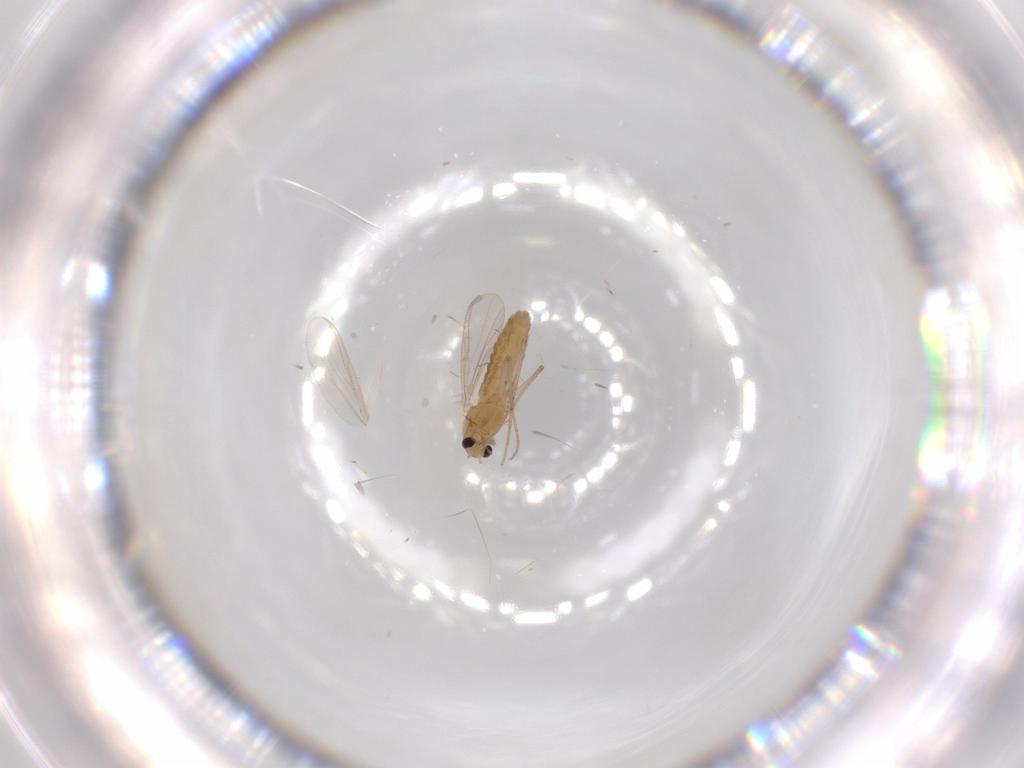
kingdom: Animalia
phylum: Arthropoda
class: Insecta
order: Diptera
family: Chironomidae
